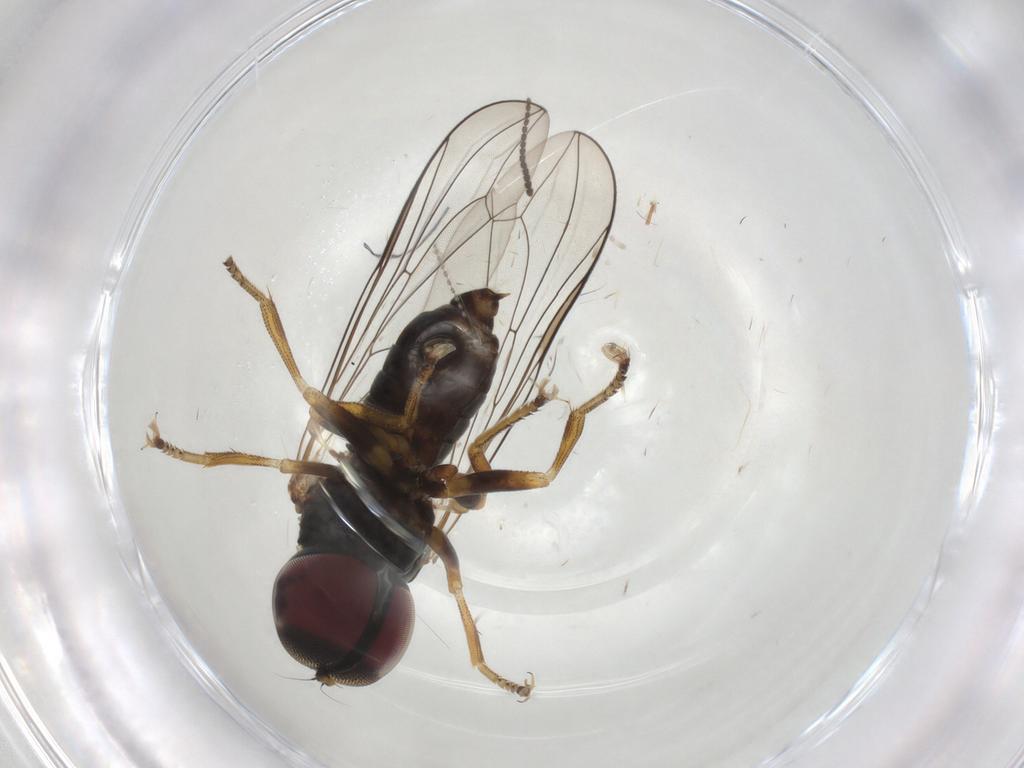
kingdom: Animalia
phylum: Arthropoda
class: Insecta
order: Diptera
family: Pipunculidae
